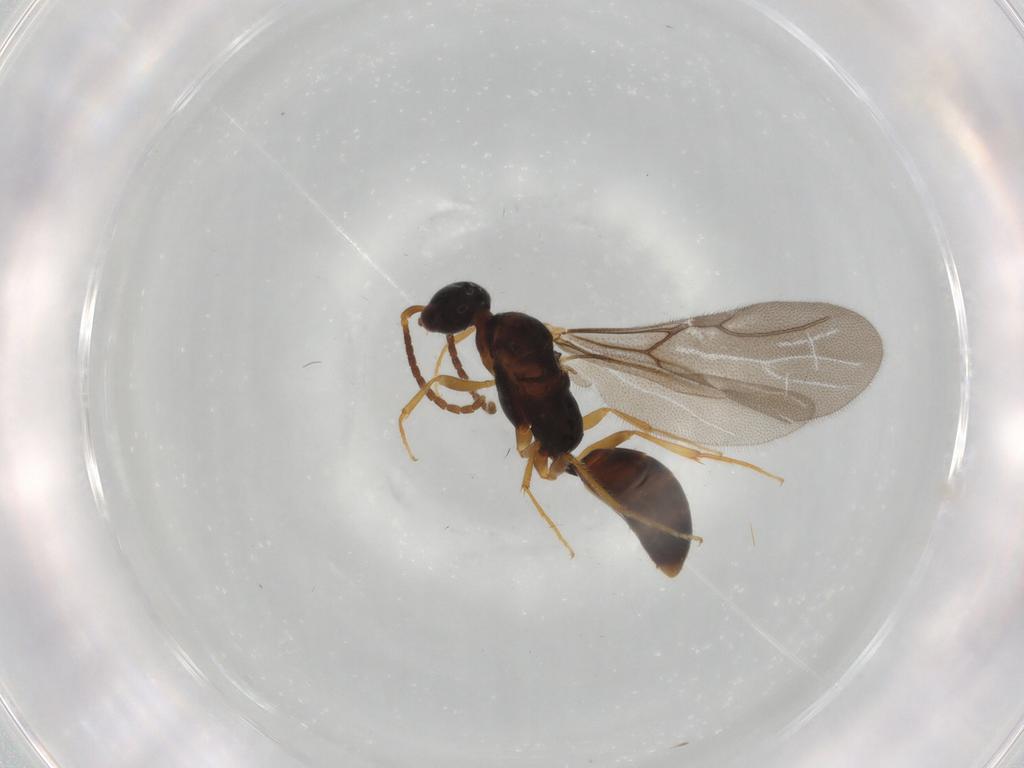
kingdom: Animalia
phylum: Arthropoda
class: Insecta
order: Hymenoptera
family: Bethylidae
